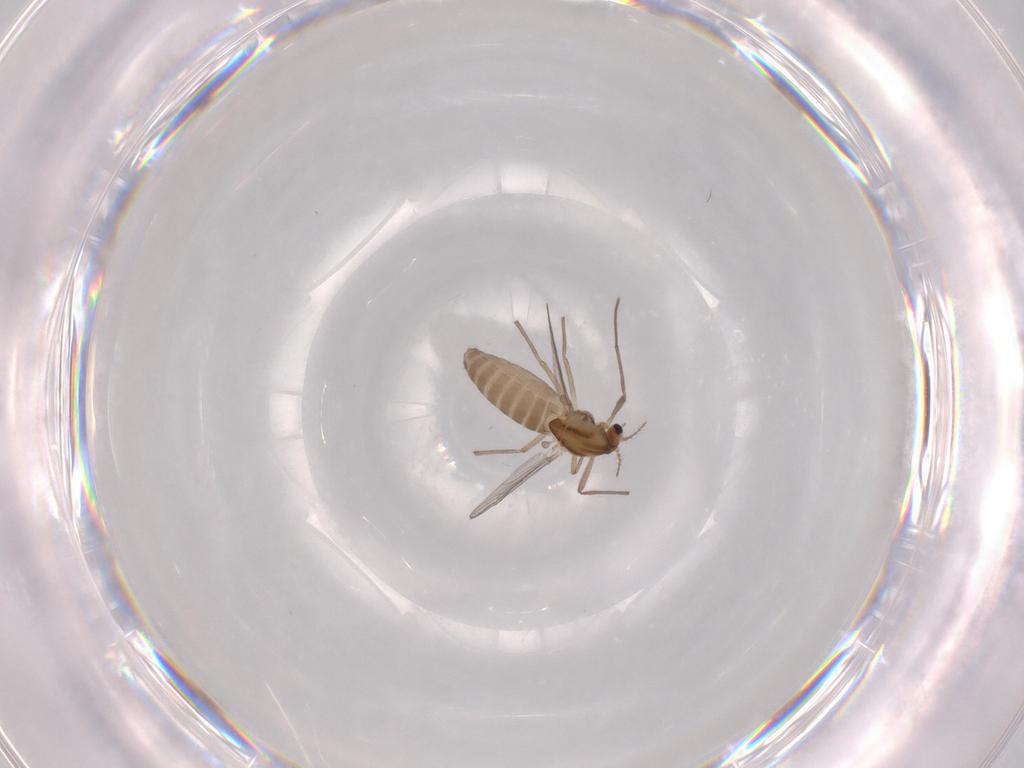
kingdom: Animalia
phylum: Arthropoda
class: Insecta
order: Diptera
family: Chironomidae
